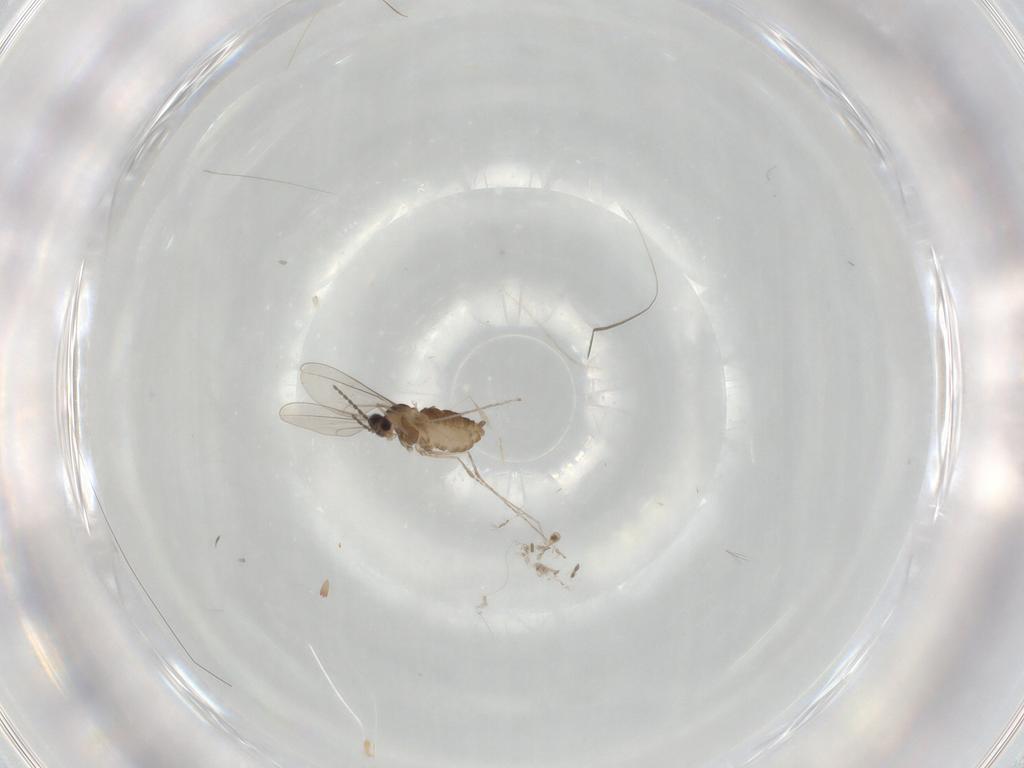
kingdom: Animalia
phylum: Arthropoda
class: Insecta
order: Diptera
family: Cecidomyiidae
